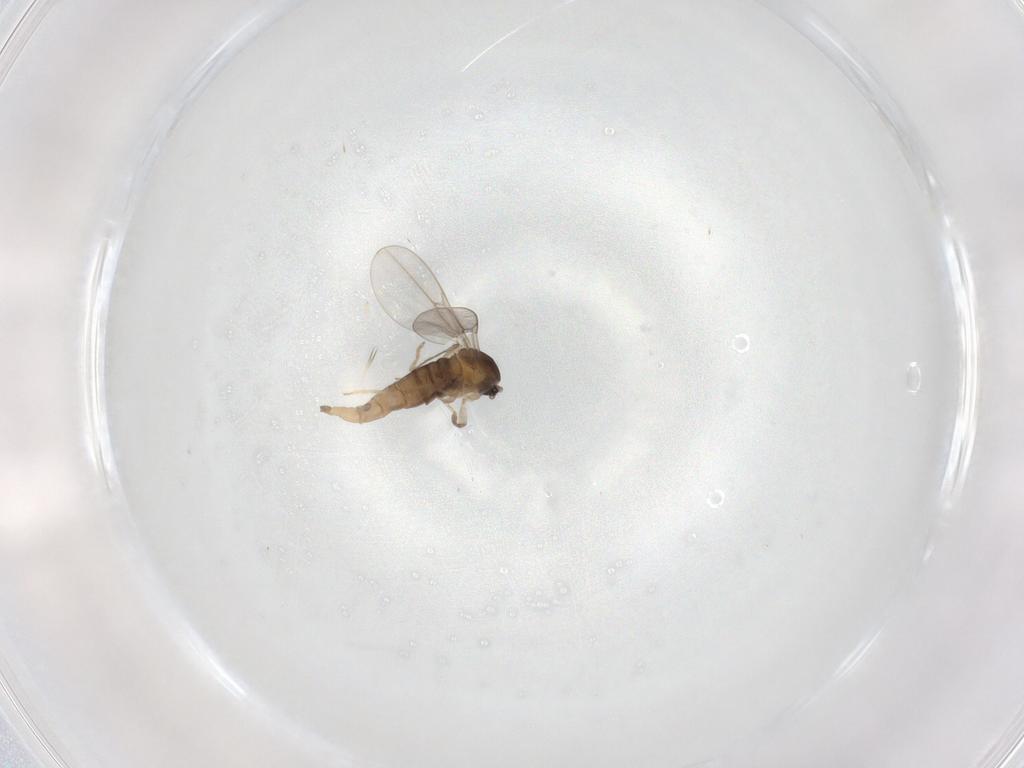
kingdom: Animalia
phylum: Arthropoda
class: Insecta
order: Diptera
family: Cecidomyiidae
